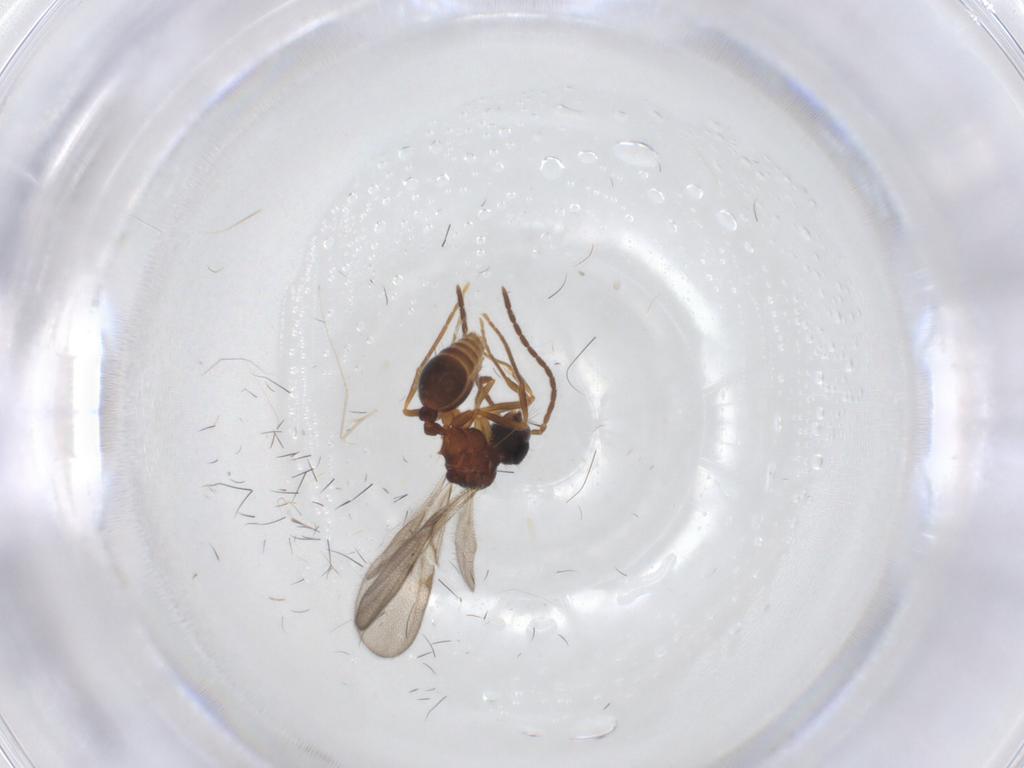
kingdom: Animalia
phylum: Arthropoda
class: Insecta
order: Hymenoptera
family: Formicidae
